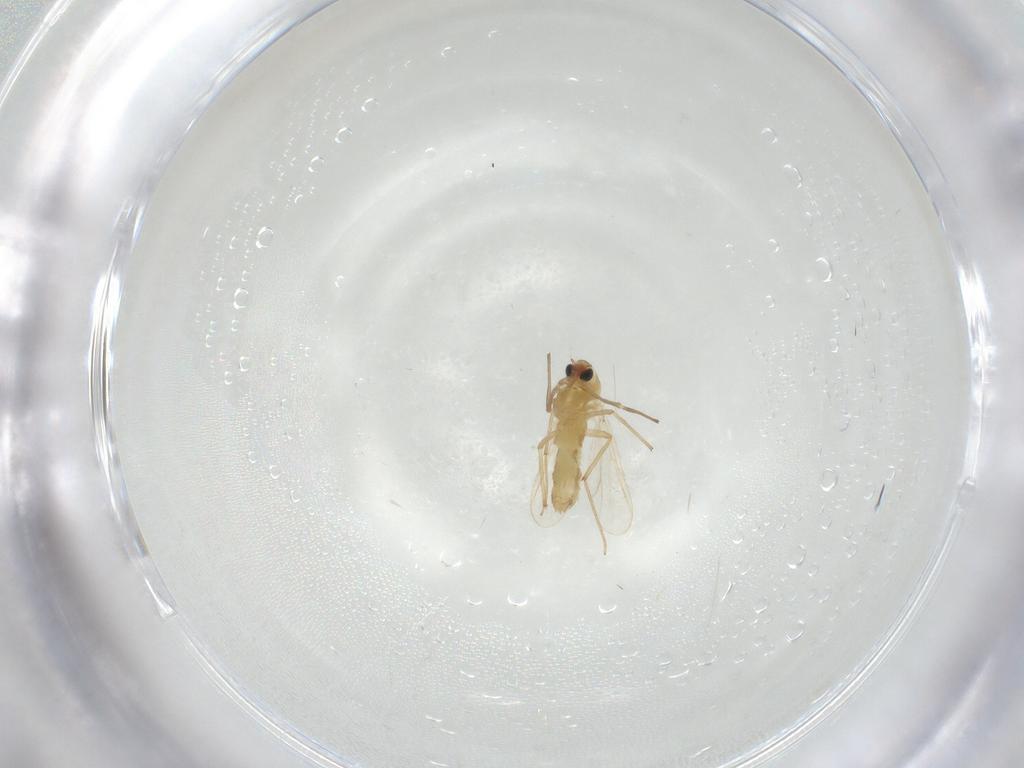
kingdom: Animalia
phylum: Arthropoda
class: Insecta
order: Diptera
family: Chironomidae
